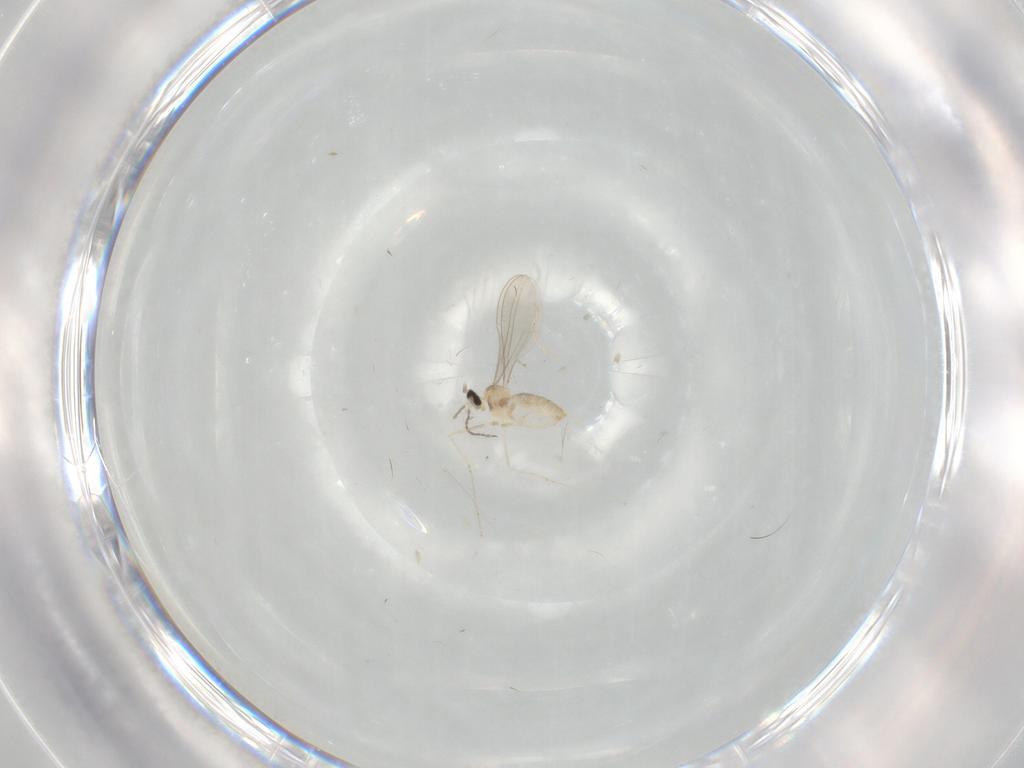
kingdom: Animalia
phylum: Arthropoda
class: Insecta
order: Diptera
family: Cecidomyiidae
